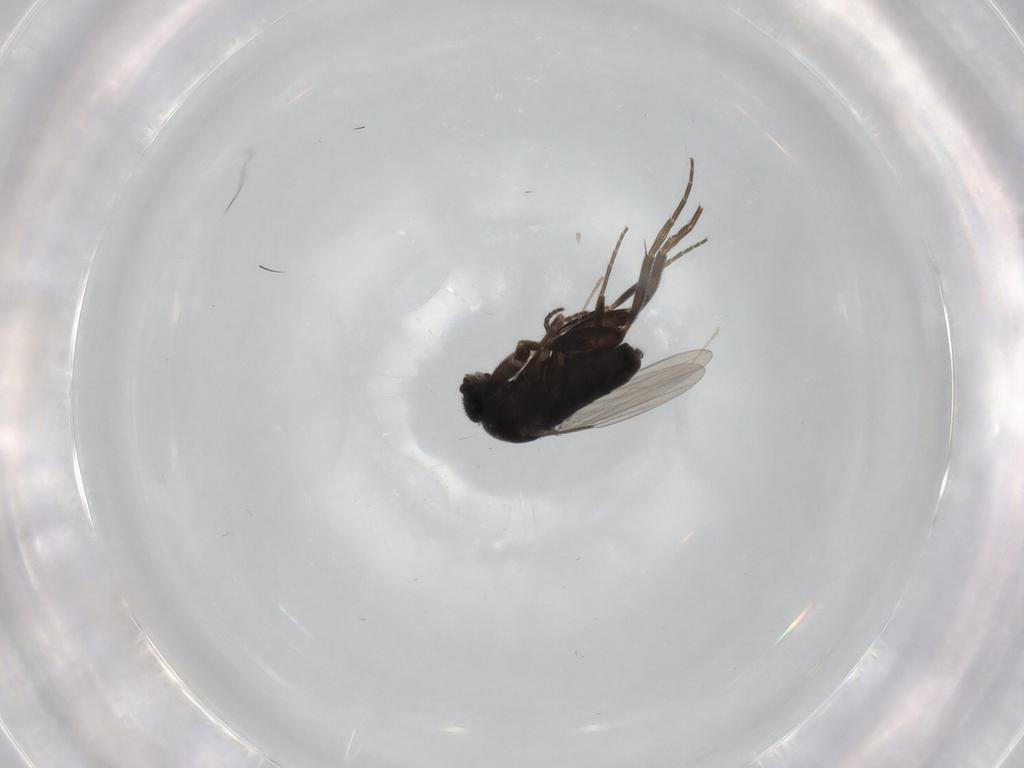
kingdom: Animalia
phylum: Arthropoda
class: Insecta
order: Diptera
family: Phoridae
